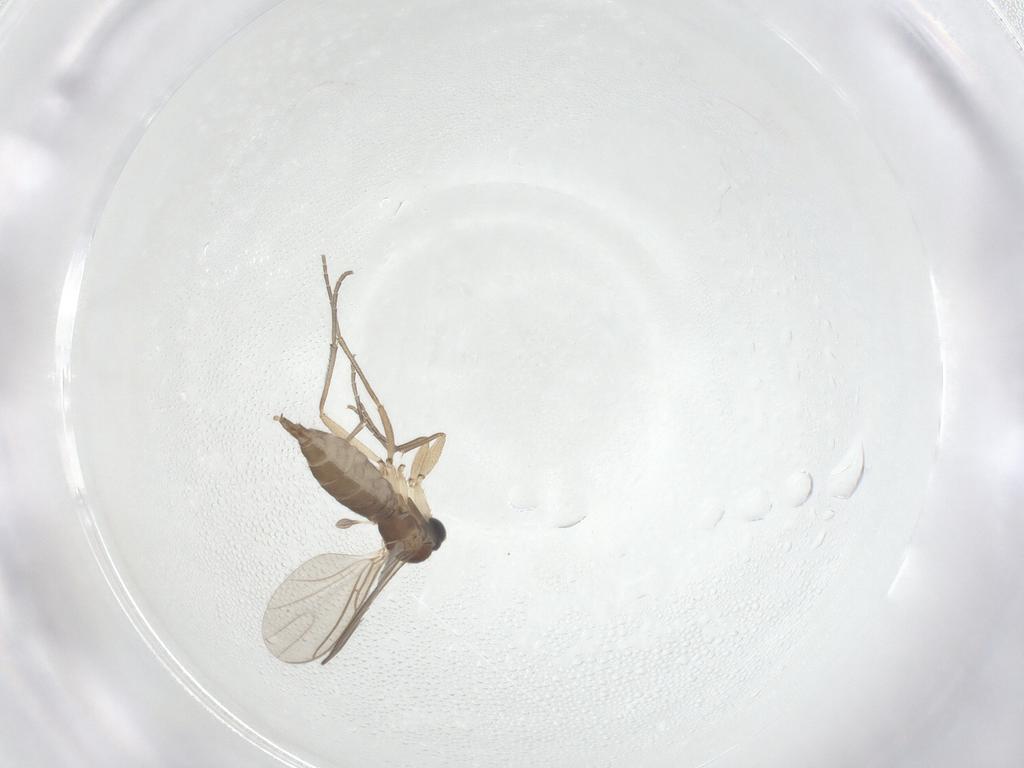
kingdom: Animalia
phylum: Arthropoda
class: Insecta
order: Diptera
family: Sciaridae
